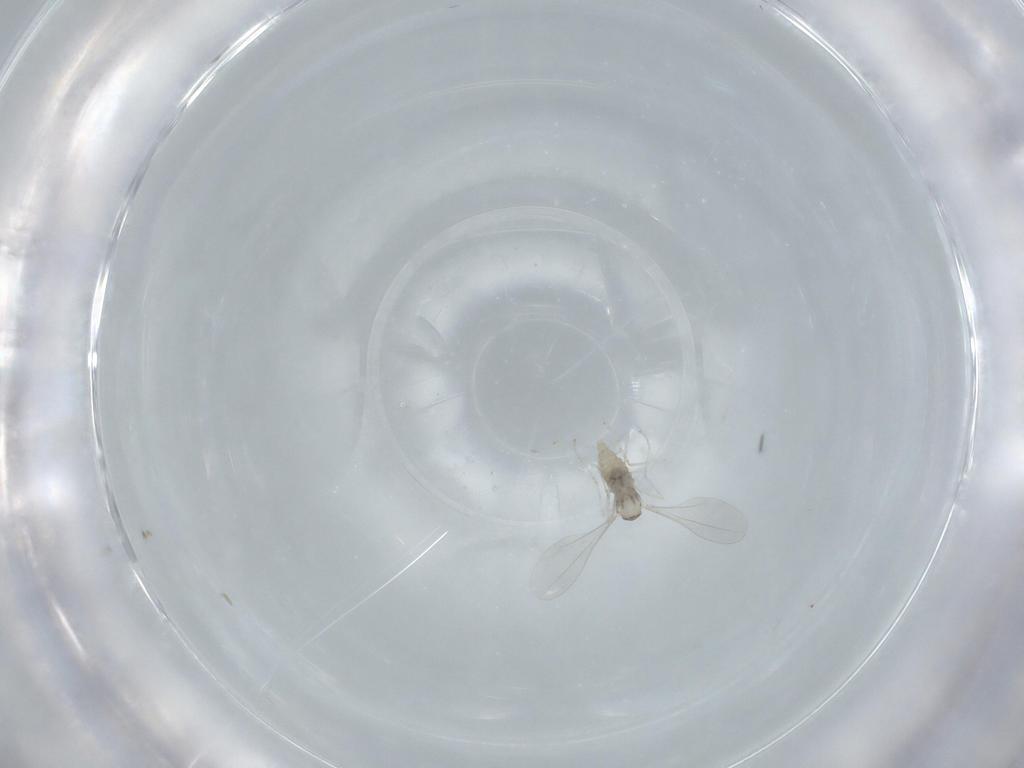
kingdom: Animalia
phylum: Arthropoda
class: Insecta
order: Diptera
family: Cecidomyiidae
